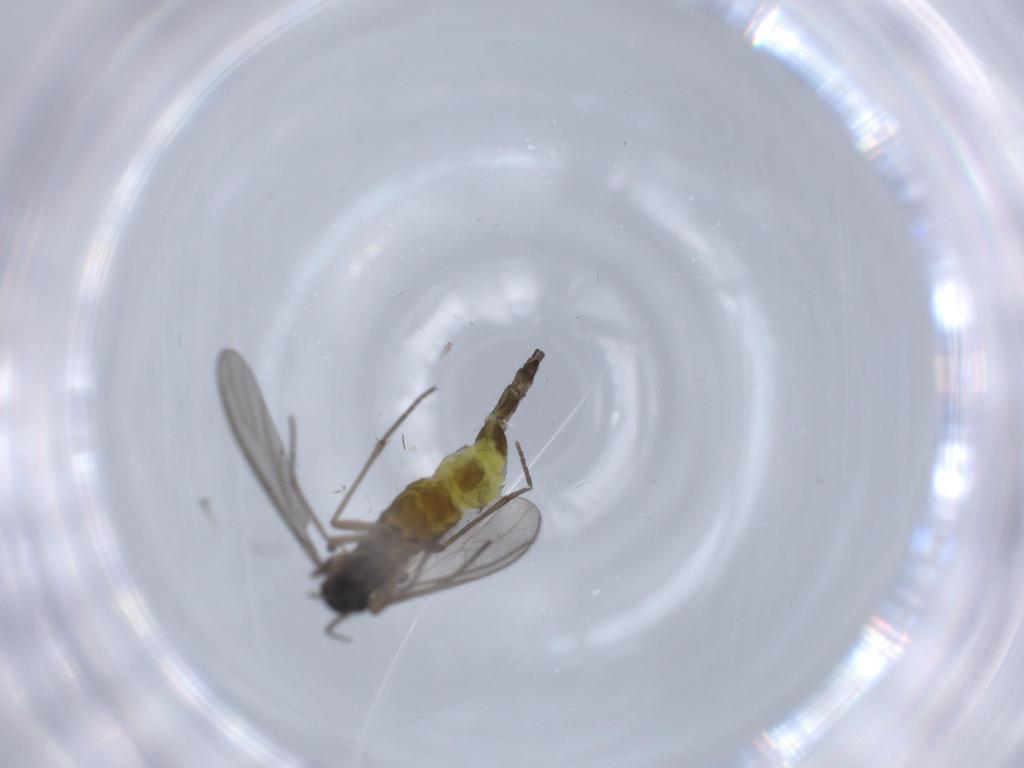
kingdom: Animalia
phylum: Arthropoda
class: Insecta
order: Diptera
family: Sciaridae
